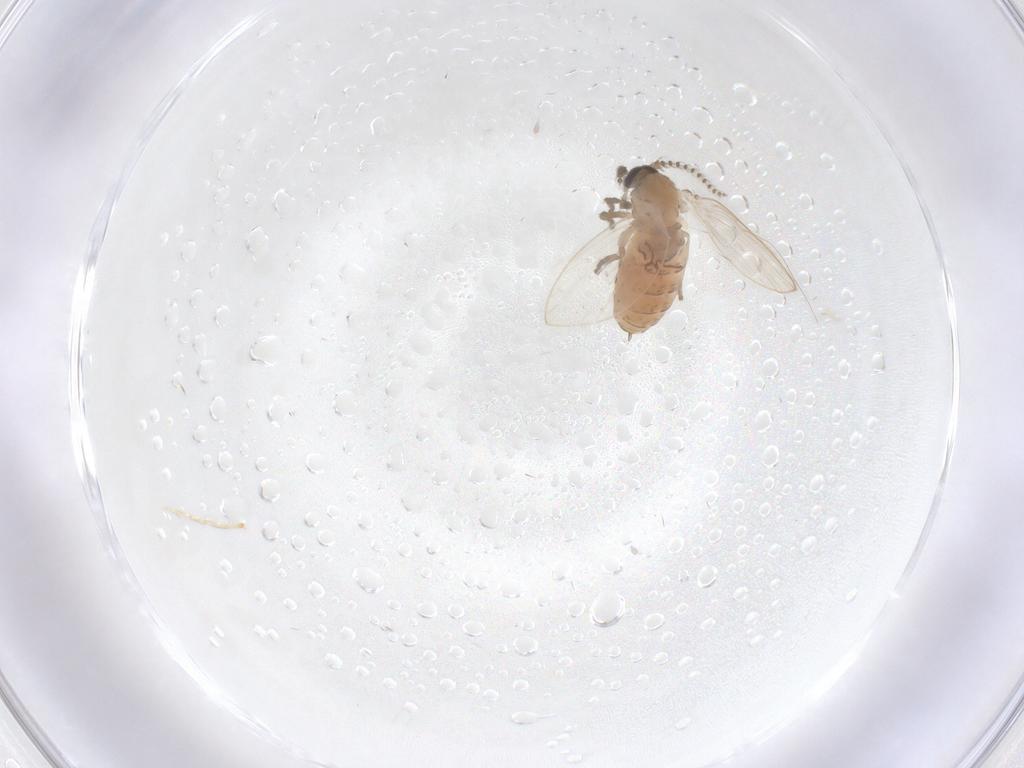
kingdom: Animalia
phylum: Arthropoda
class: Insecta
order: Diptera
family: Psychodidae
